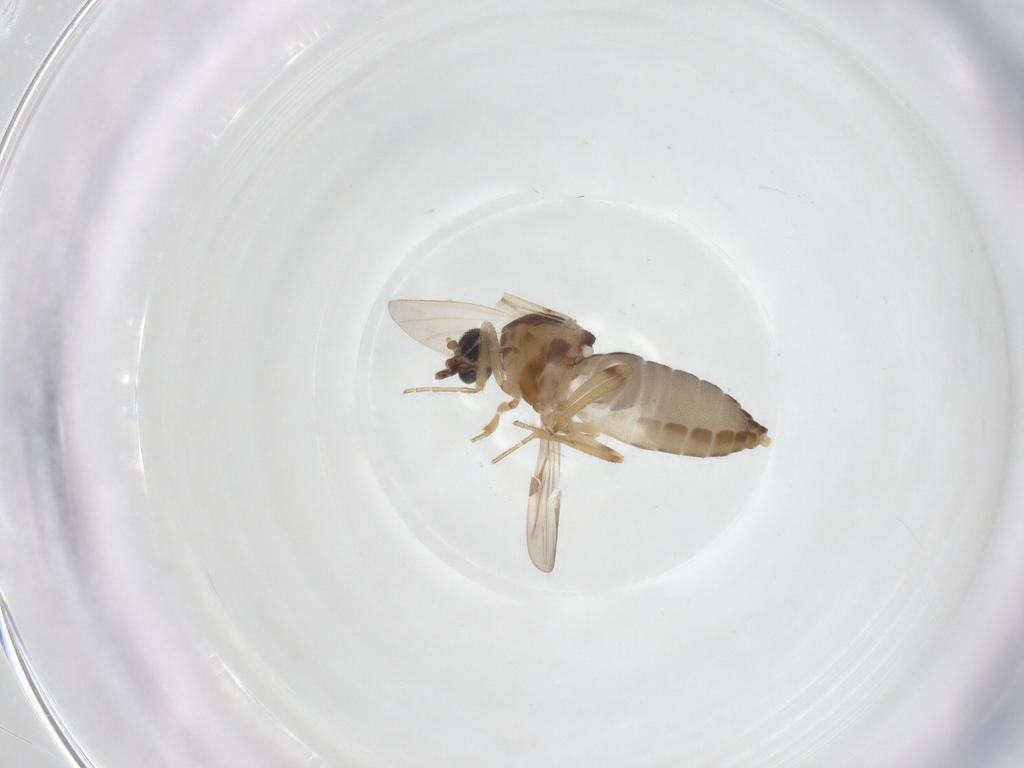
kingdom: Animalia
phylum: Arthropoda
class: Insecta
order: Diptera
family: Ceratopogonidae
